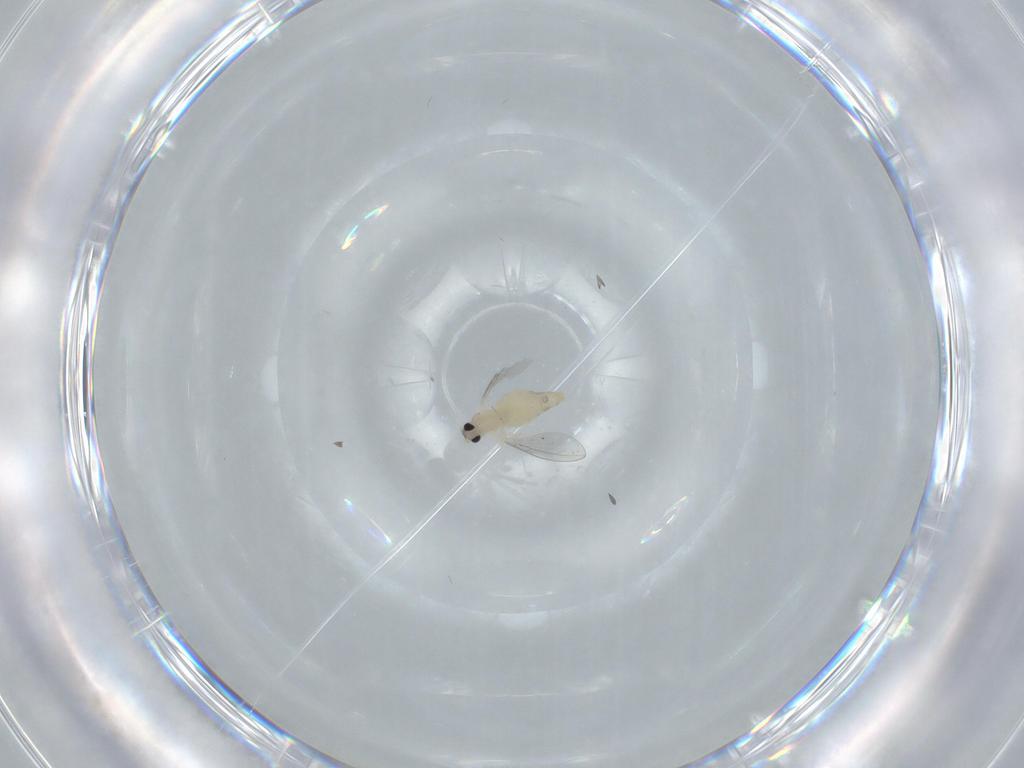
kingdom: Animalia
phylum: Arthropoda
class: Insecta
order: Diptera
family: Cecidomyiidae
